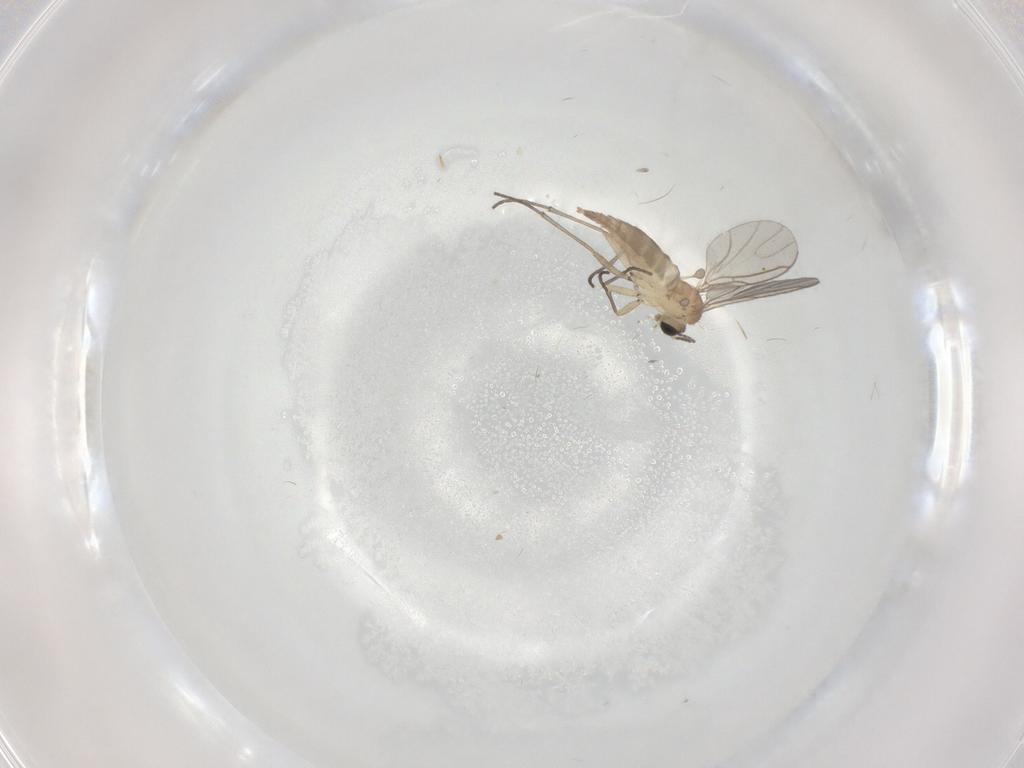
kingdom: Animalia
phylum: Arthropoda
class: Insecta
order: Diptera
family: Sciaridae
